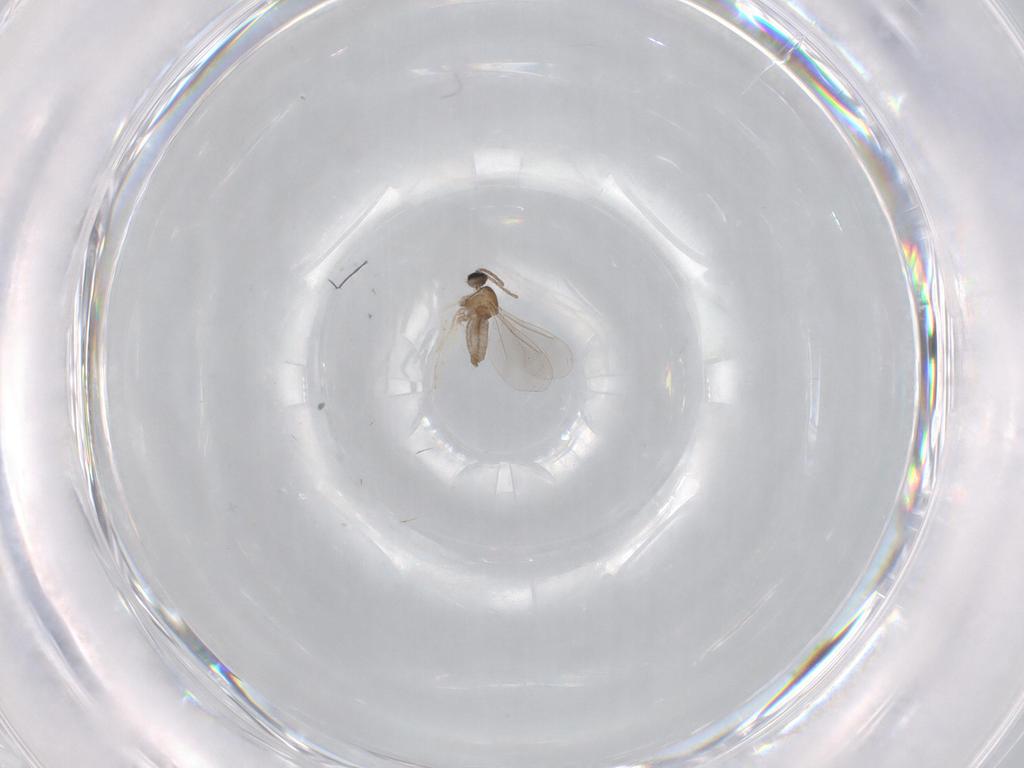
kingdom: Animalia
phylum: Arthropoda
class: Insecta
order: Diptera
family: Cecidomyiidae
